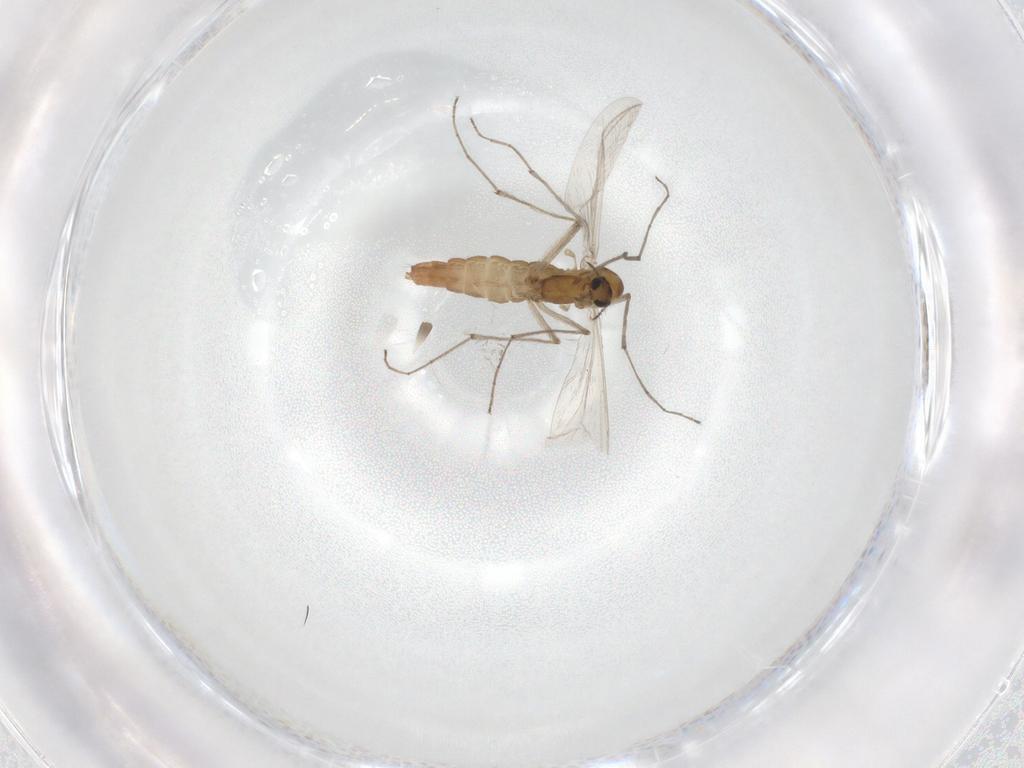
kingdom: Animalia
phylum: Arthropoda
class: Insecta
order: Diptera
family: Chironomidae
